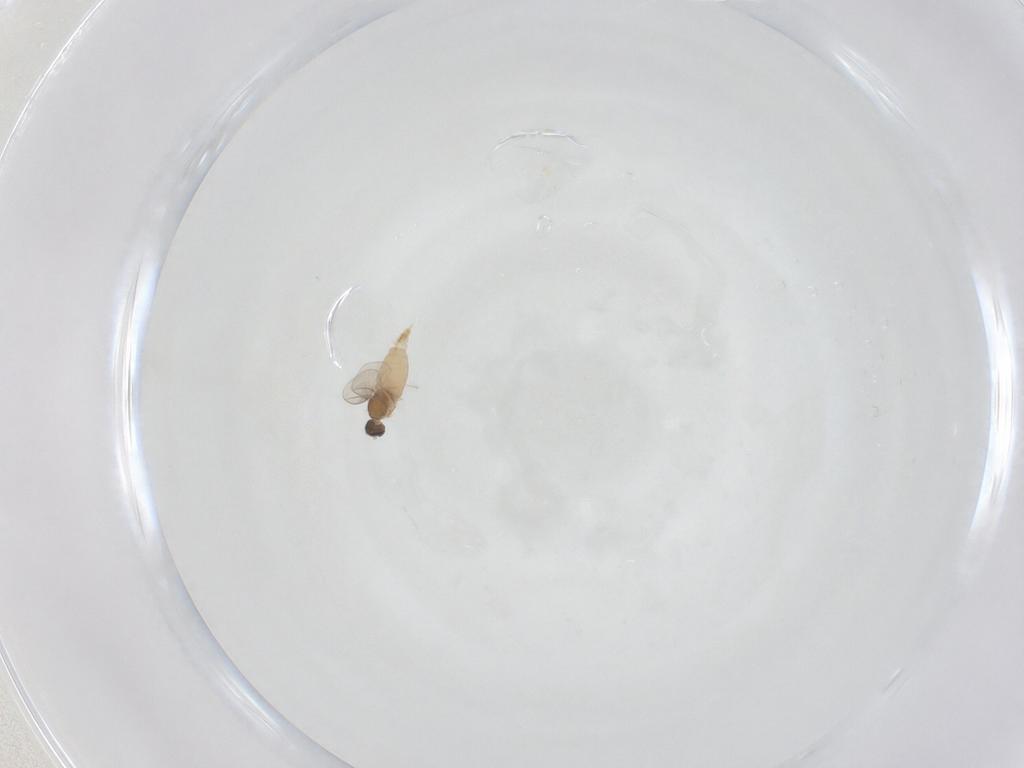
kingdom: Animalia
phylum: Arthropoda
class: Insecta
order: Diptera
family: Cecidomyiidae
